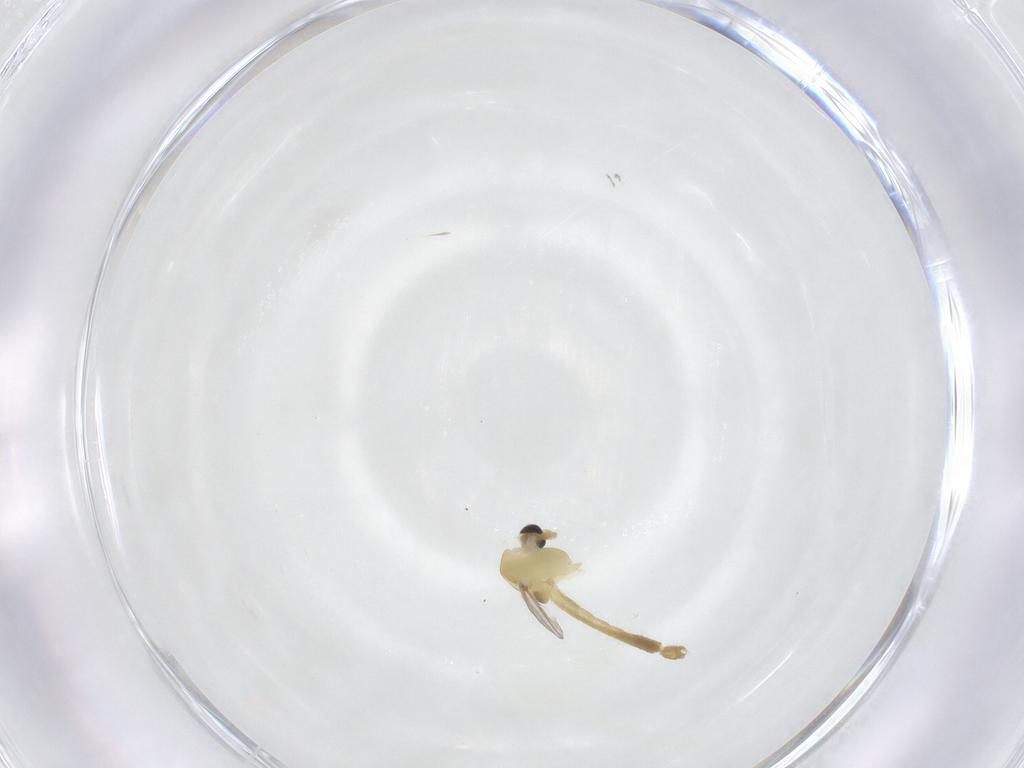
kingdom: Animalia
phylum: Arthropoda
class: Insecta
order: Diptera
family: Chironomidae
